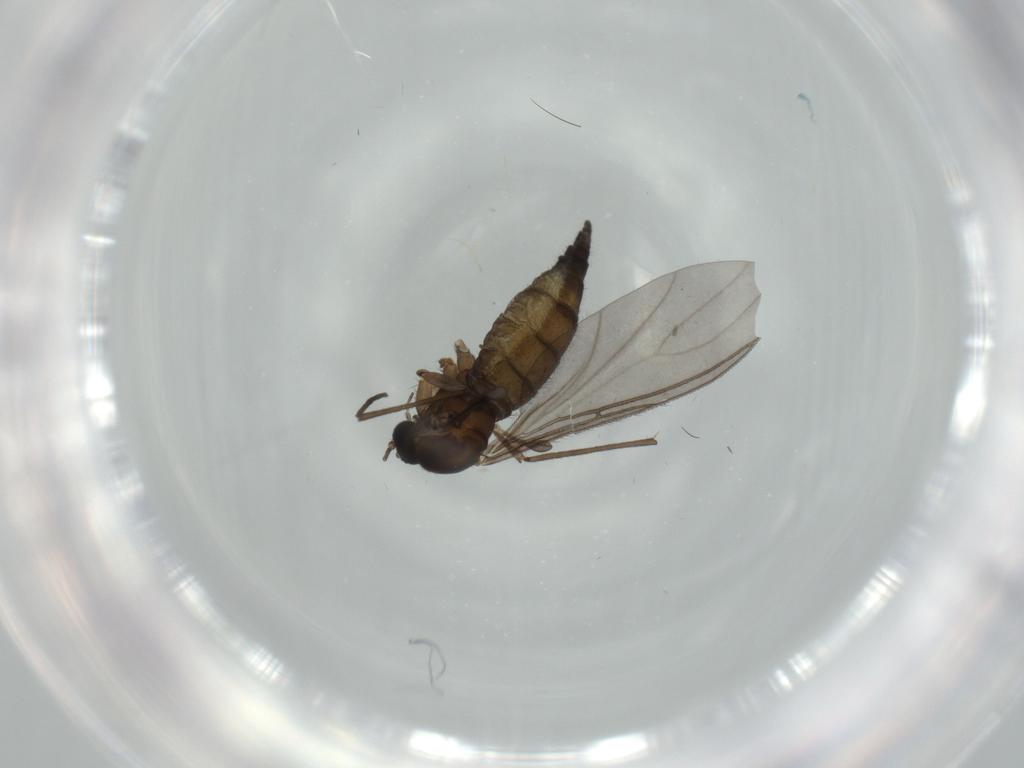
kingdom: Animalia
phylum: Arthropoda
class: Insecta
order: Diptera
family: Sciaridae
